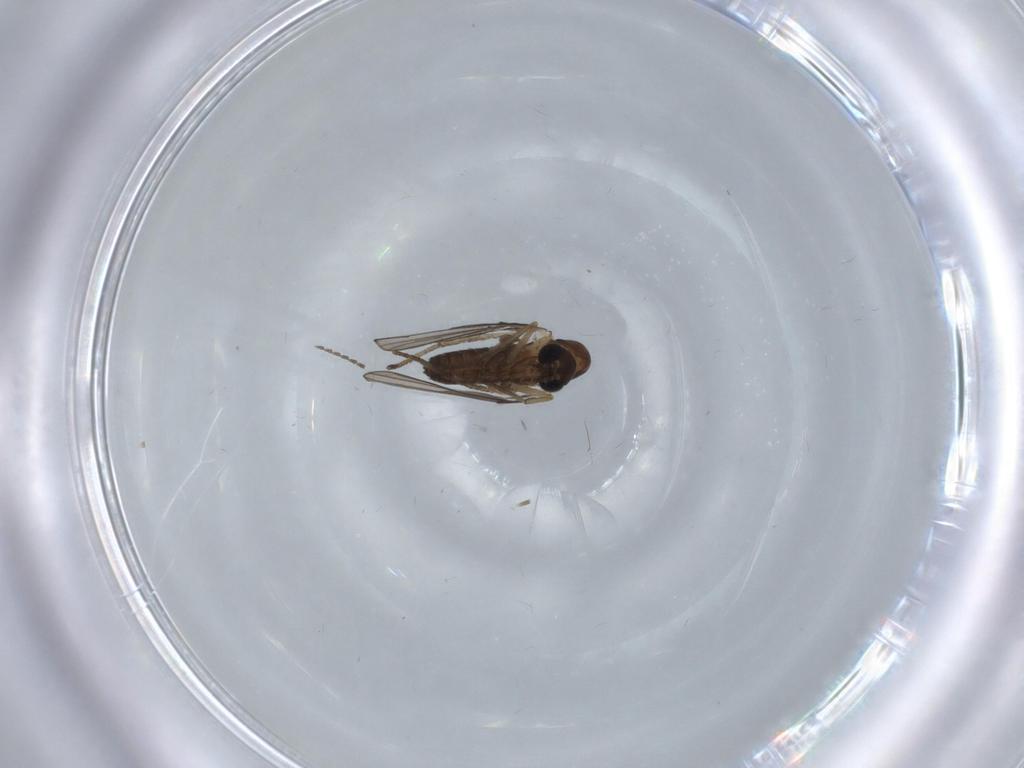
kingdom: Animalia
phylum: Arthropoda
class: Insecta
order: Diptera
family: Psychodidae
